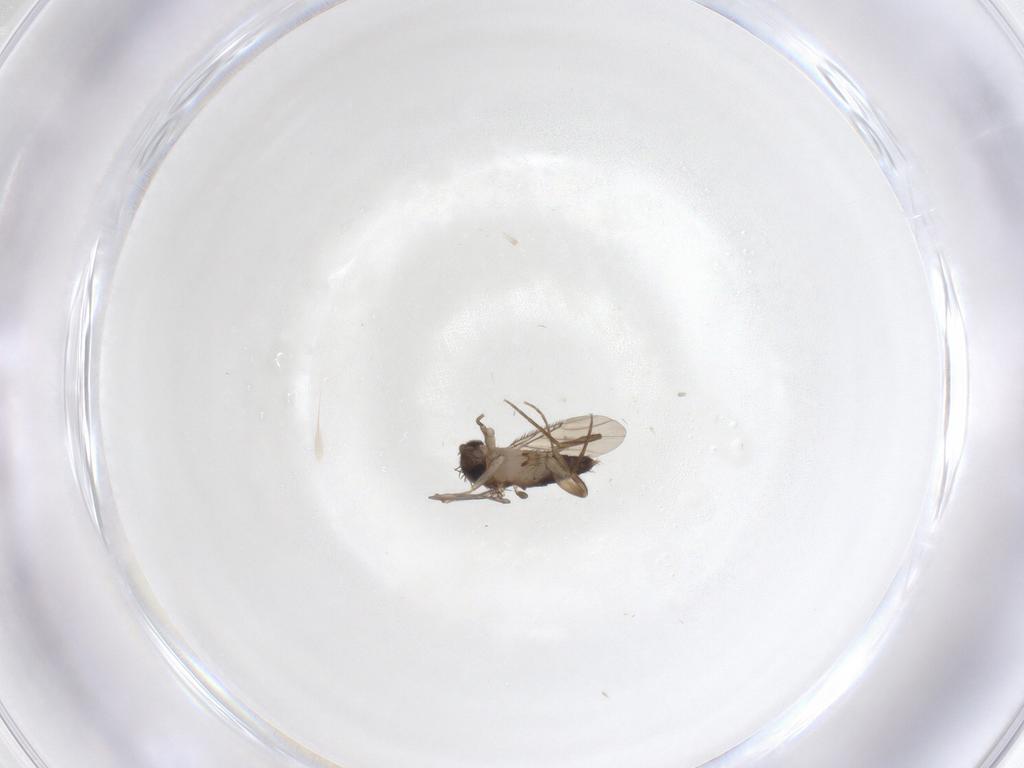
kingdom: Animalia
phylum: Arthropoda
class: Insecta
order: Diptera
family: Phoridae
